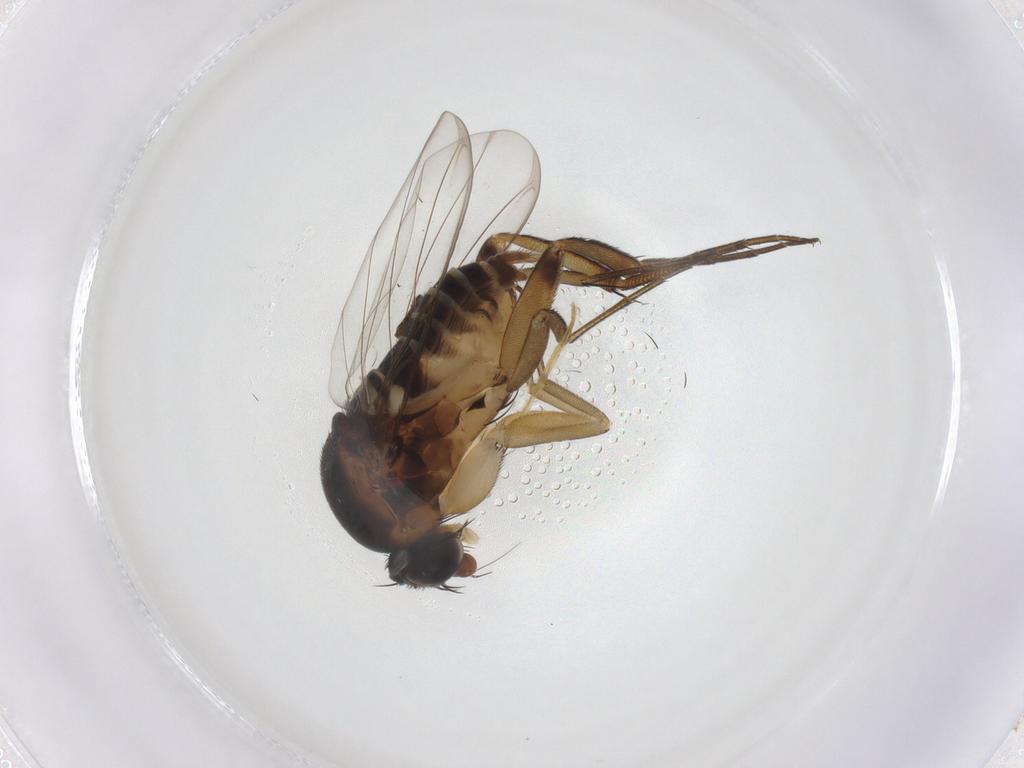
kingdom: Animalia
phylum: Arthropoda
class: Insecta
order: Diptera
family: Phoridae
